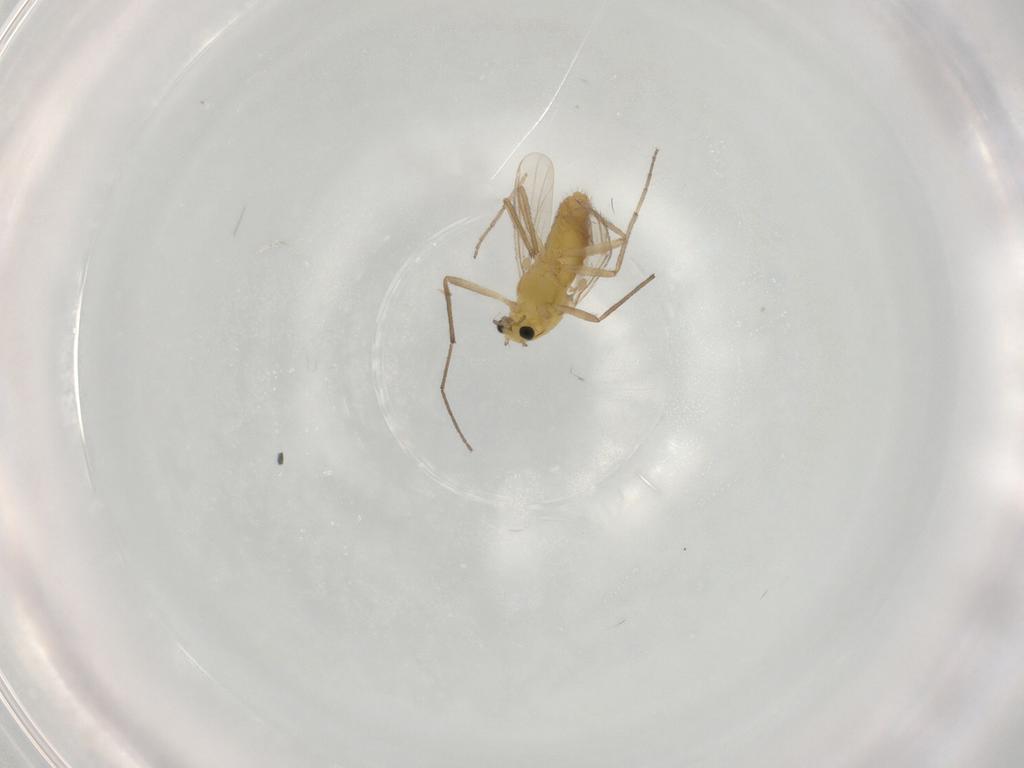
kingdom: Animalia
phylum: Arthropoda
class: Insecta
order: Diptera
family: Chironomidae
